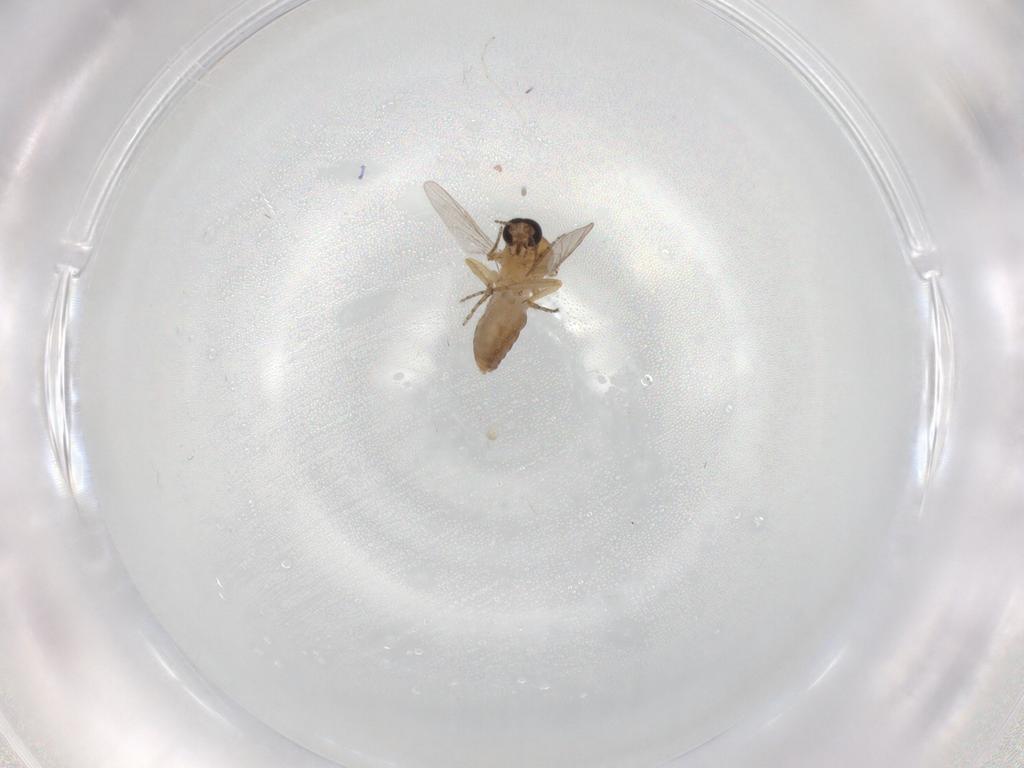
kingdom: Animalia
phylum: Arthropoda
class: Insecta
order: Diptera
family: Ceratopogonidae
